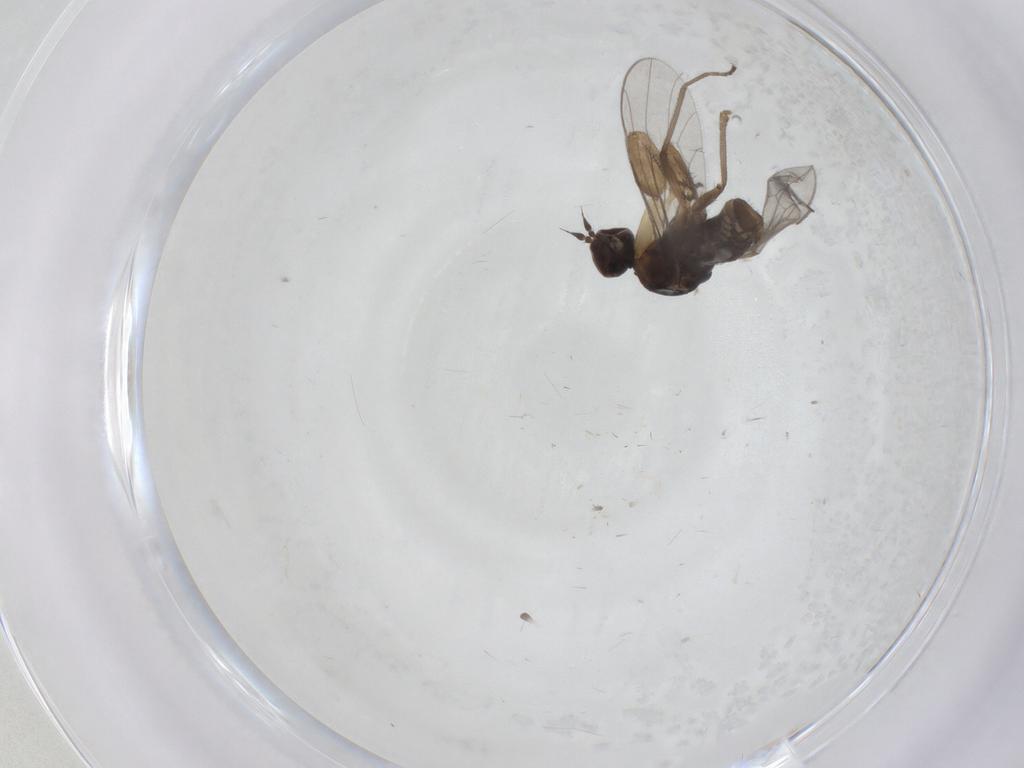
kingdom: Animalia
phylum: Arthropoda
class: Insecta
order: Diptera
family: Empididae
